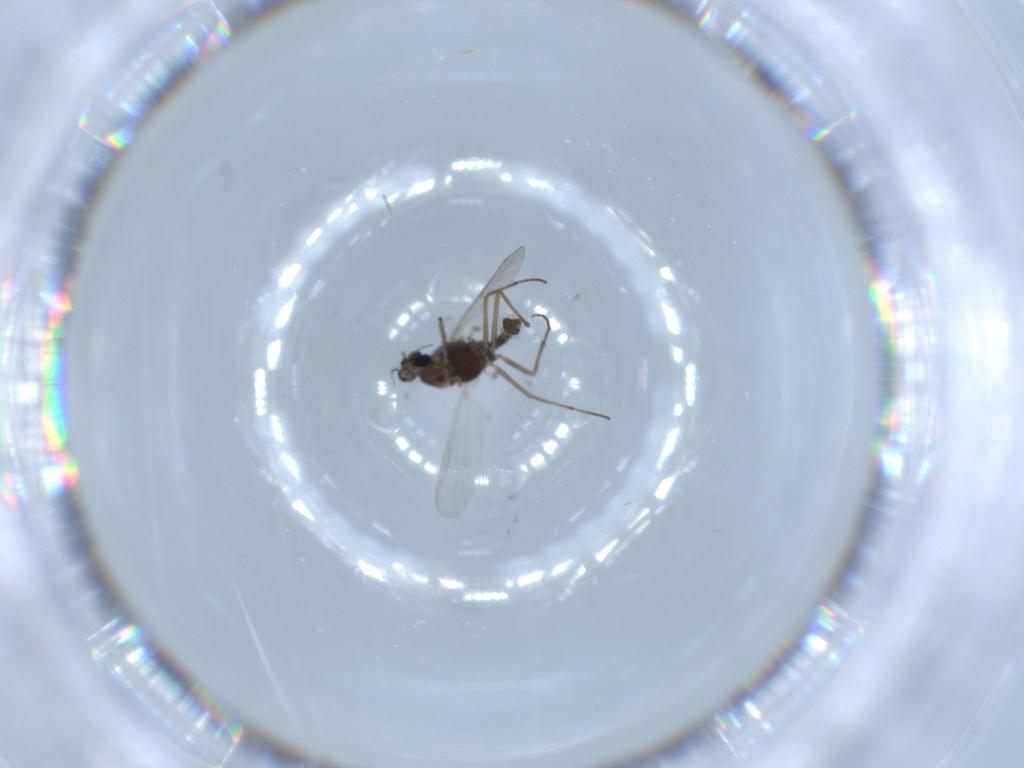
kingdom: Animalia
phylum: Arthropoda
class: Insecta
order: Diptera
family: Chironomidae
